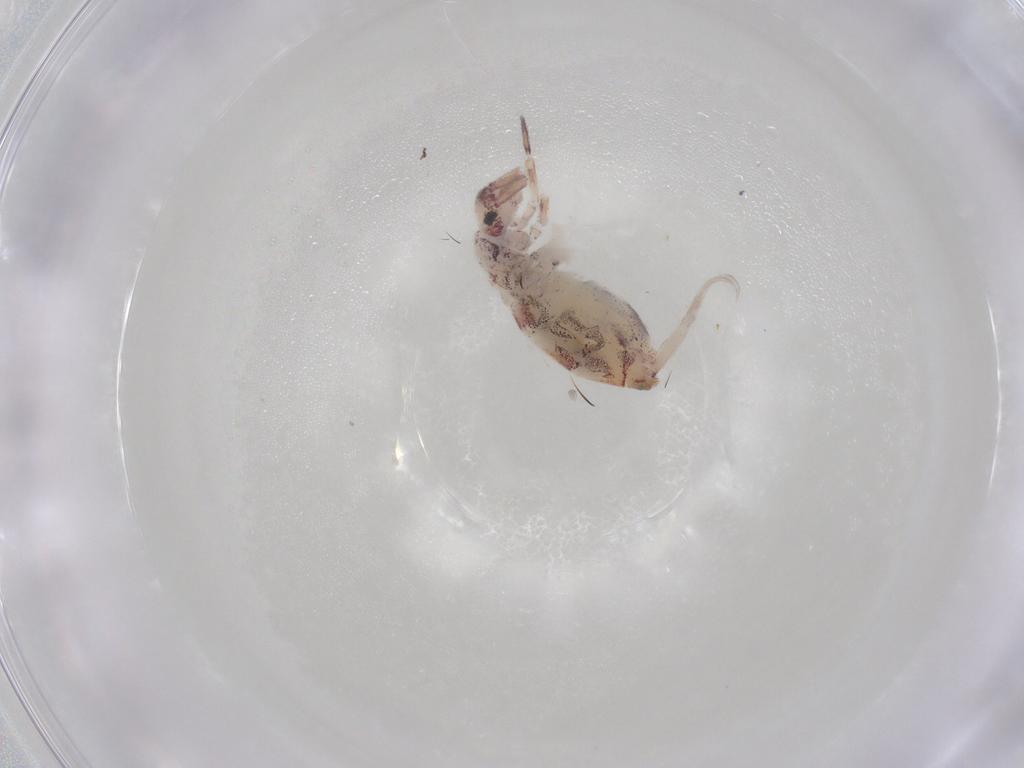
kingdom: Animalia
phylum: Arthropoda
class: Collembola
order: Entomobryomorpha
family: Entomobryidae
